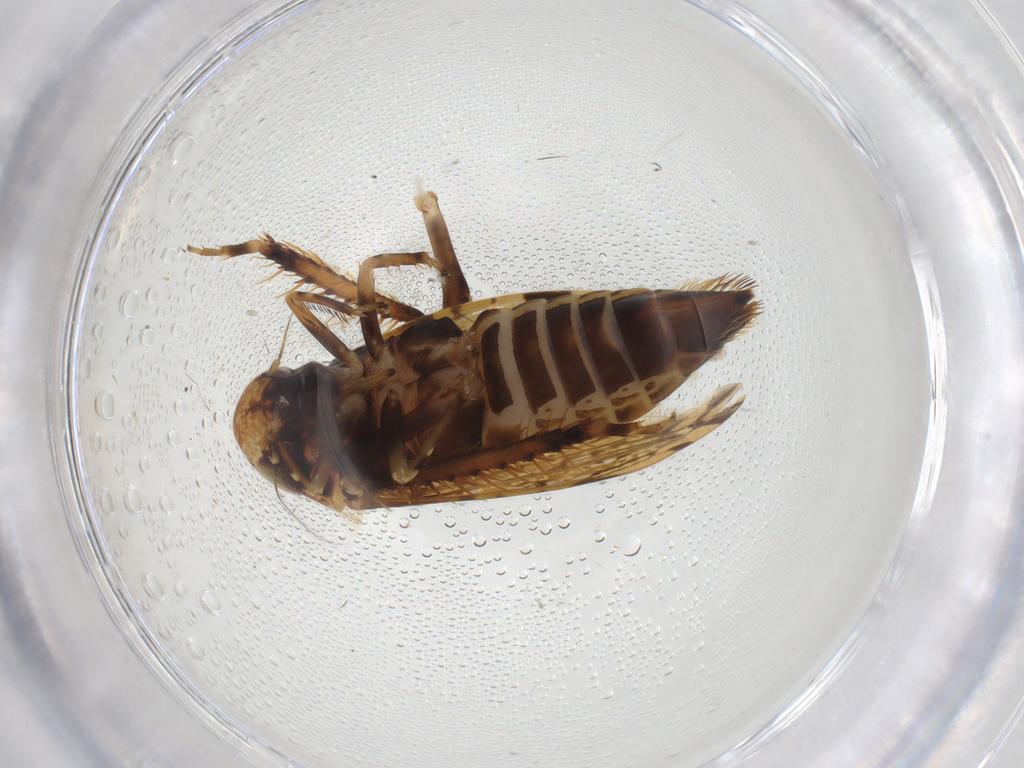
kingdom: Animalia
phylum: Arthropoda
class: Insecta
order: Hemiptera
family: Cicadellidae
